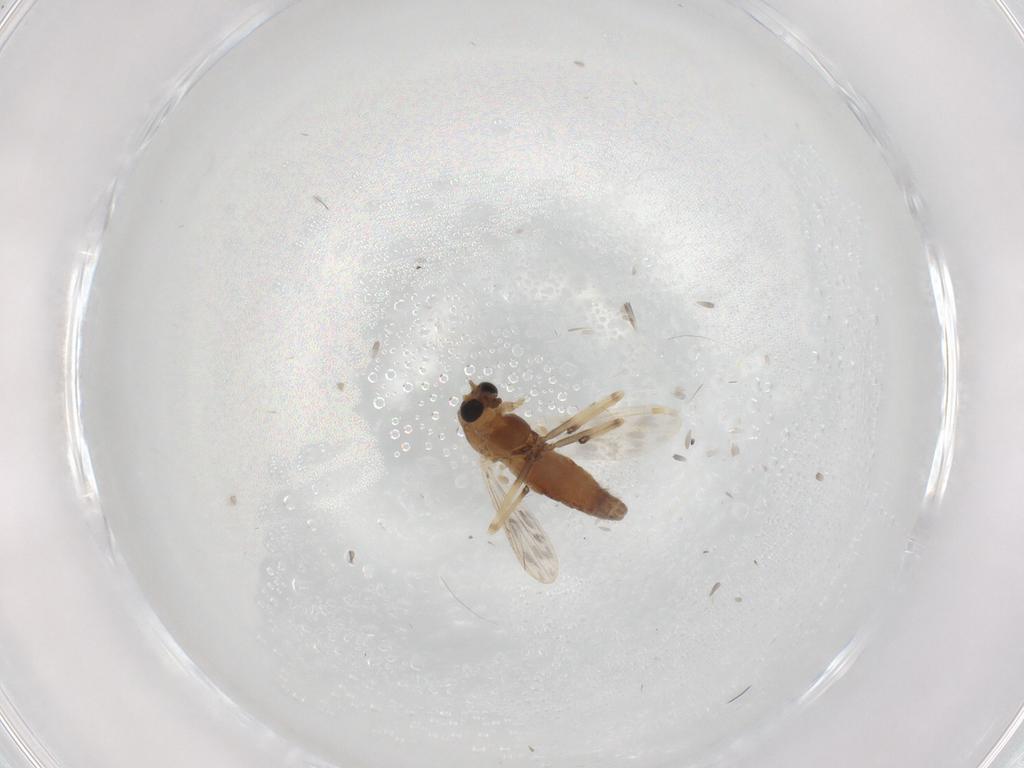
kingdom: Animalia
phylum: Arthropoda
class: Insecta
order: Diptera
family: Chironomidae
